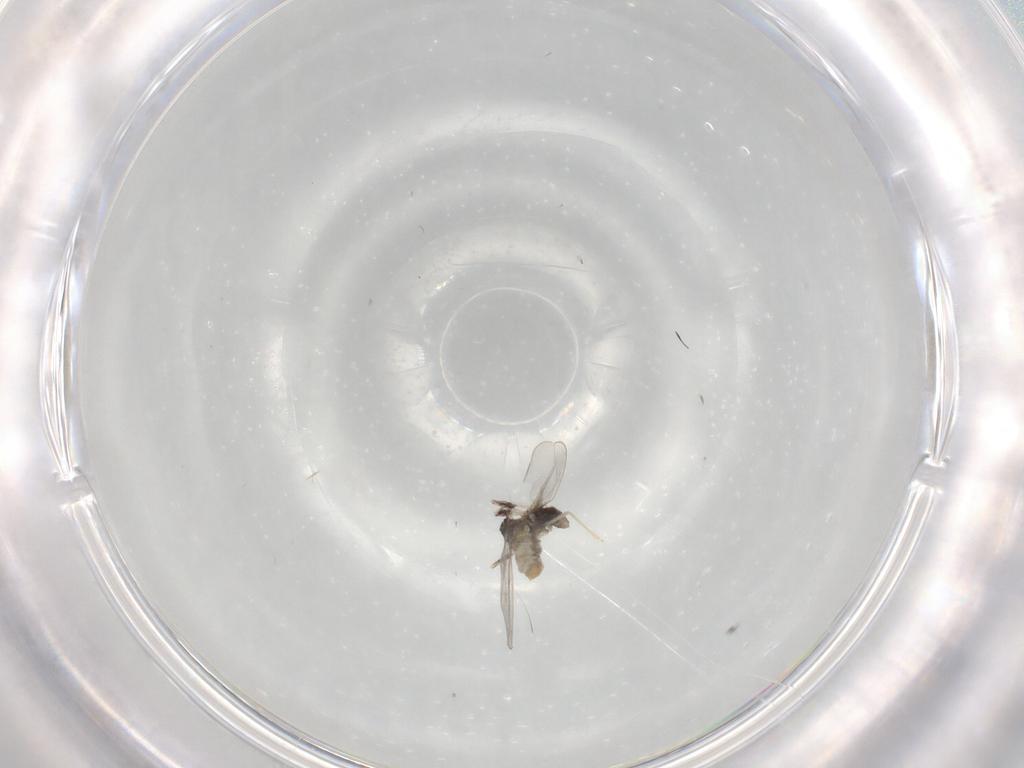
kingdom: Animalia
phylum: Arthropoda
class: Insecta
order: Diptera
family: Cecidomyiidae
